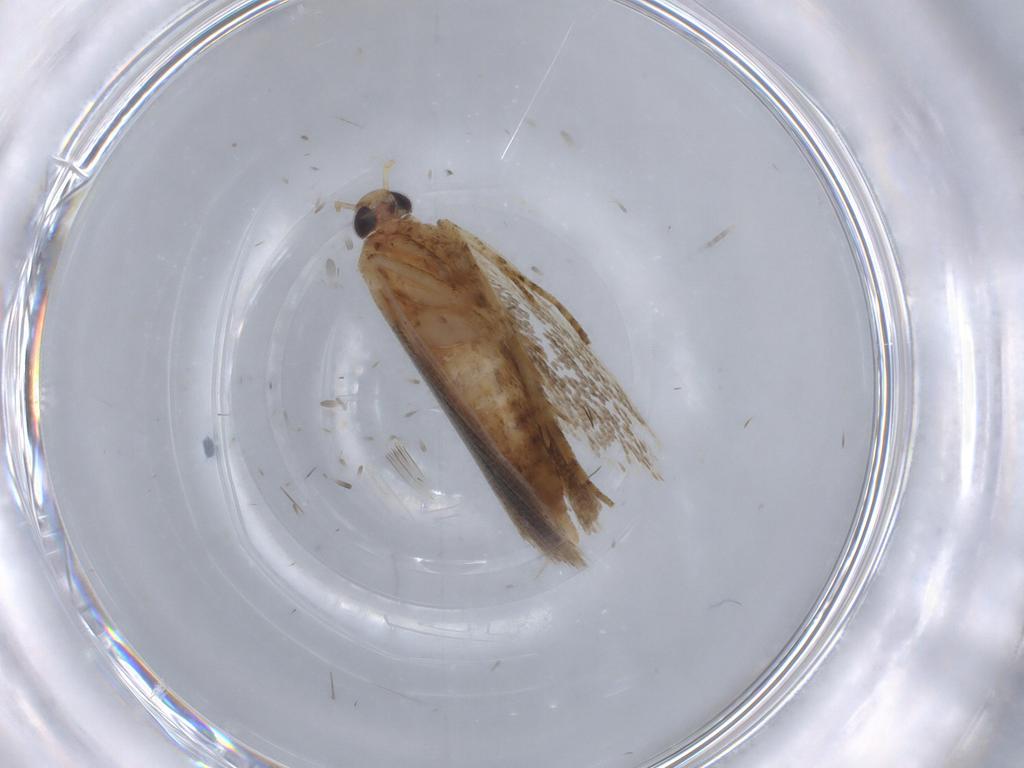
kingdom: Animalia
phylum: Arthropoda
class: Insecta
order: Lepidoptera
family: Gelechiidae
